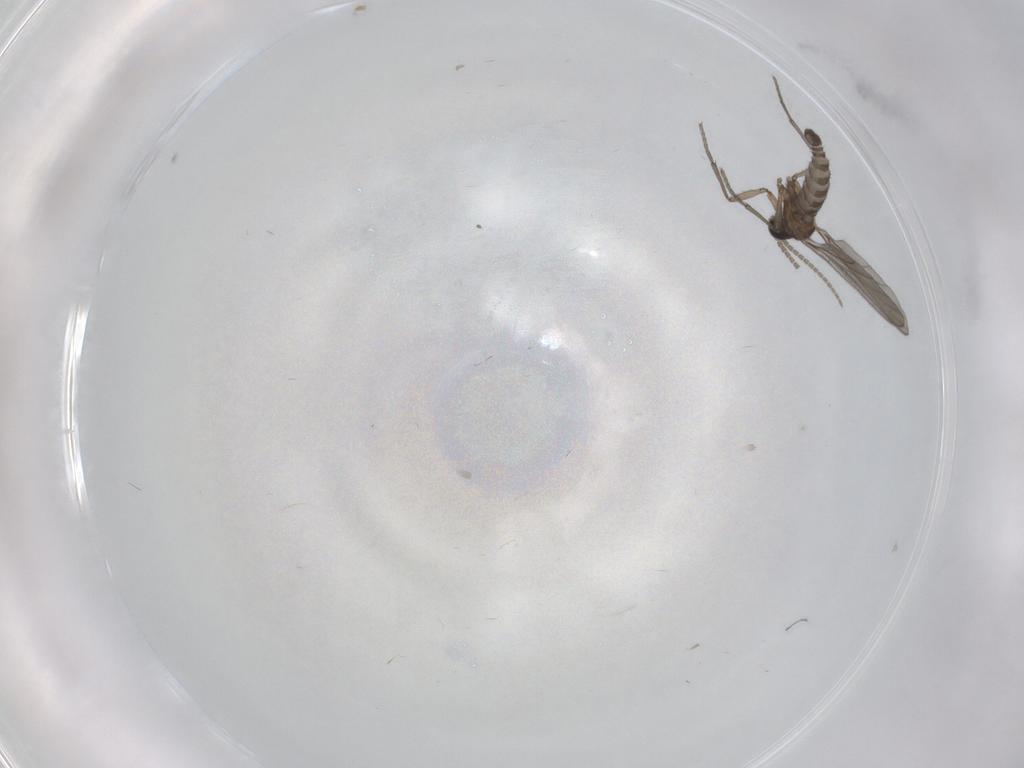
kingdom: Animalia
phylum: Arthropoda
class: Insecta
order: Diptera
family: Sciaridae
